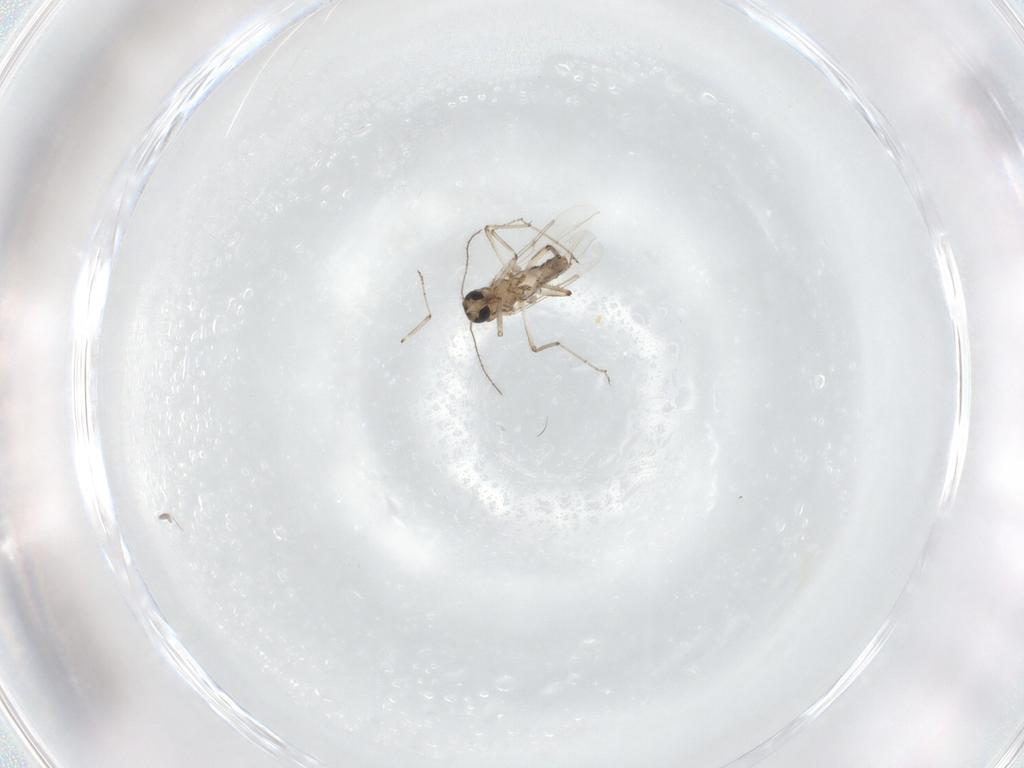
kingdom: Animalia
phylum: Arthropoda
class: Insecta
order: Diptera
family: Ceratopogonidae
